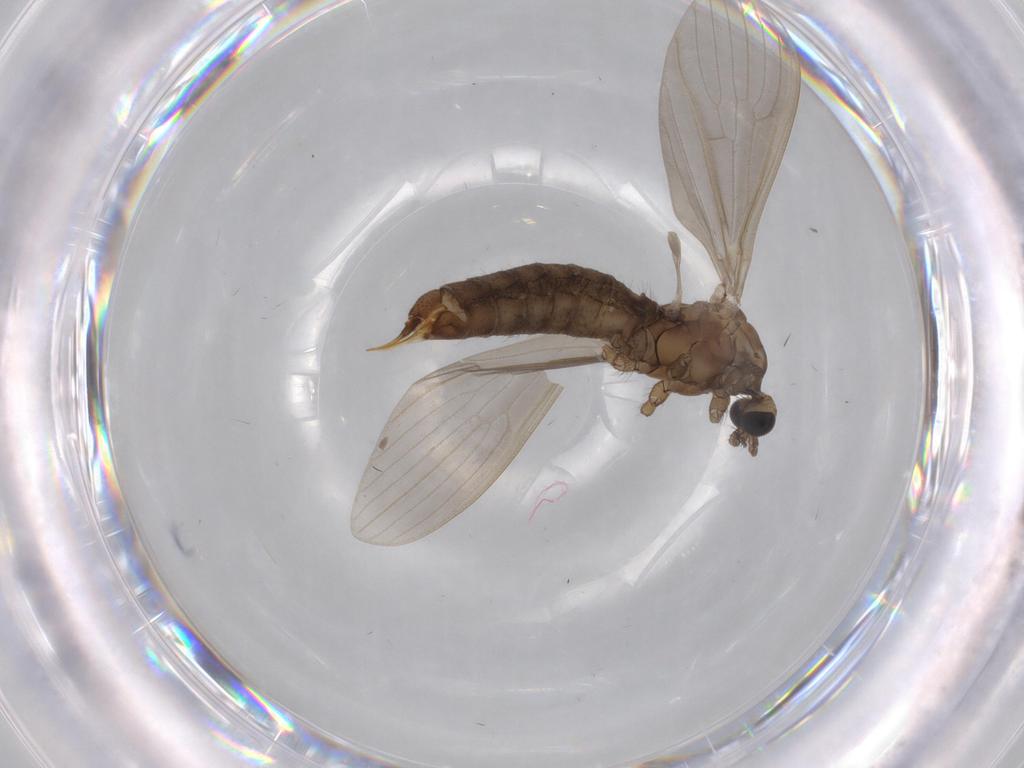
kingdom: Animalia
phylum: Arthropoda
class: Insecta
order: Diptera
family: Limoniidae
